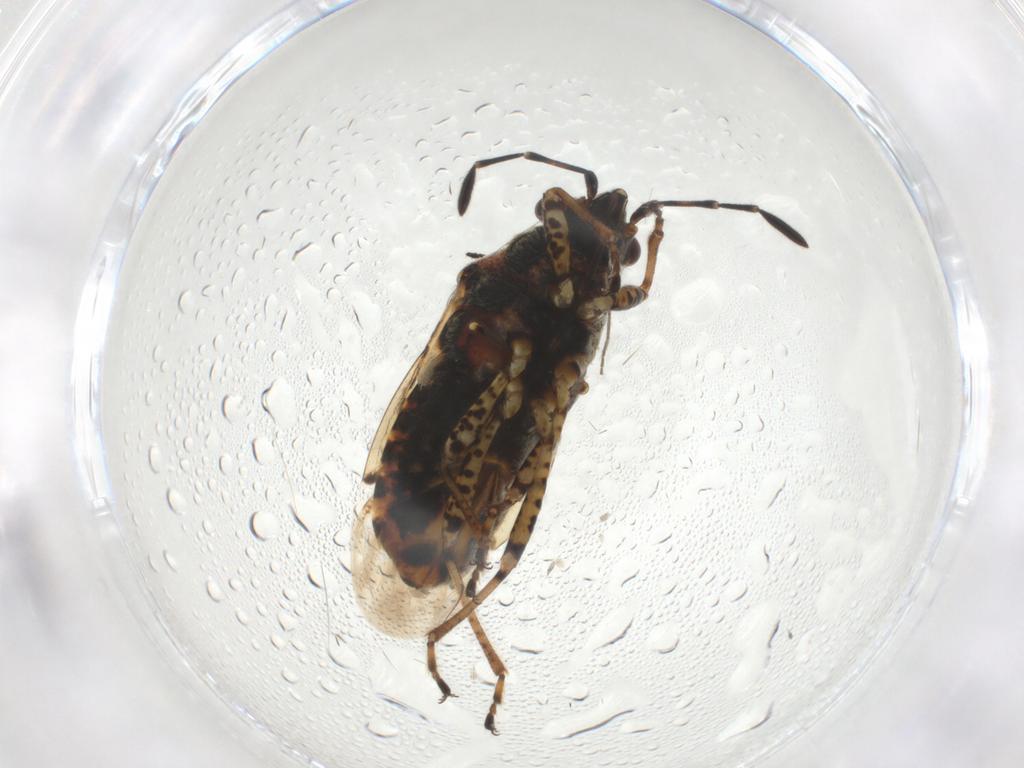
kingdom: Animalia
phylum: Arthropoda
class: Insecta
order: Hemiptera
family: Lygaeidae
